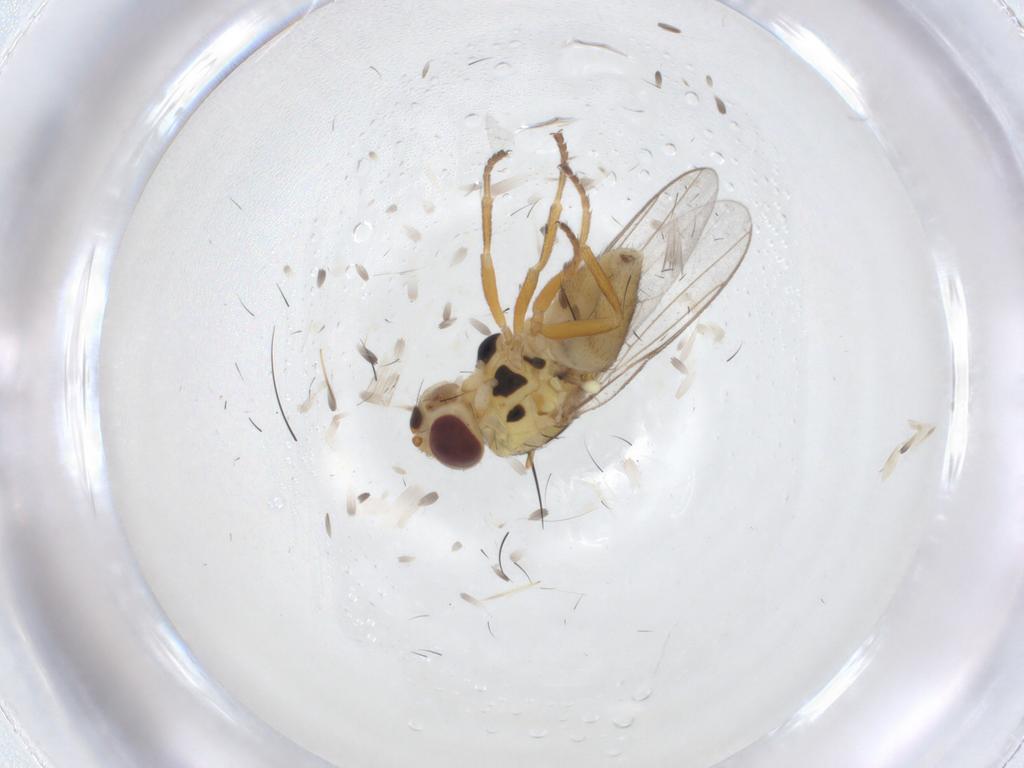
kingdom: Animalia
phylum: Arthropoda
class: Insecta
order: Diptera
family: Chloropidae
